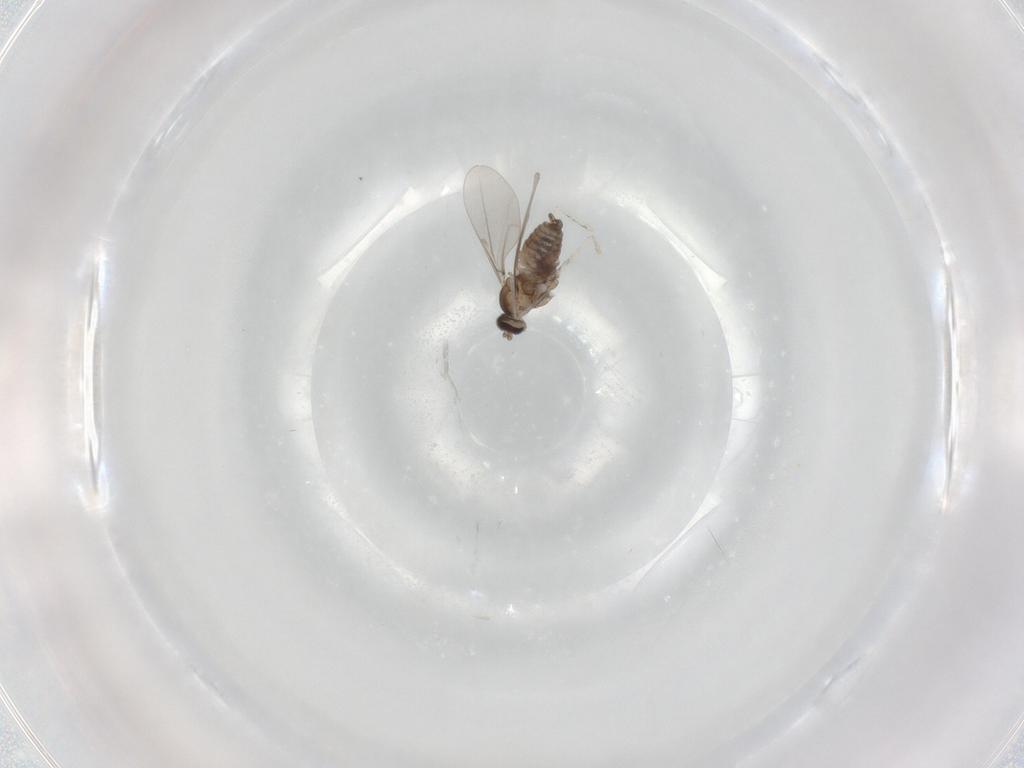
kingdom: Animalia
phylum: Arthropoda
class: Insecta
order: Diptera
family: Cecidomyiidae
